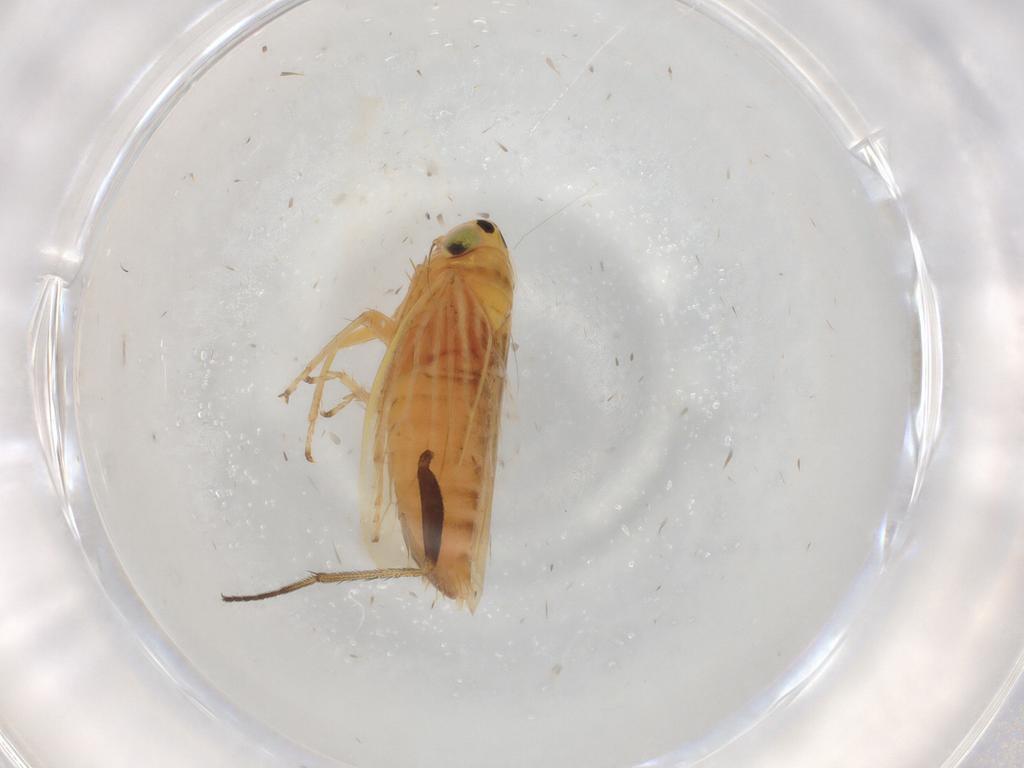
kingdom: Animalia
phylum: Arthropoda
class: Insecta
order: Hemiptera
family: Cicadellidae
